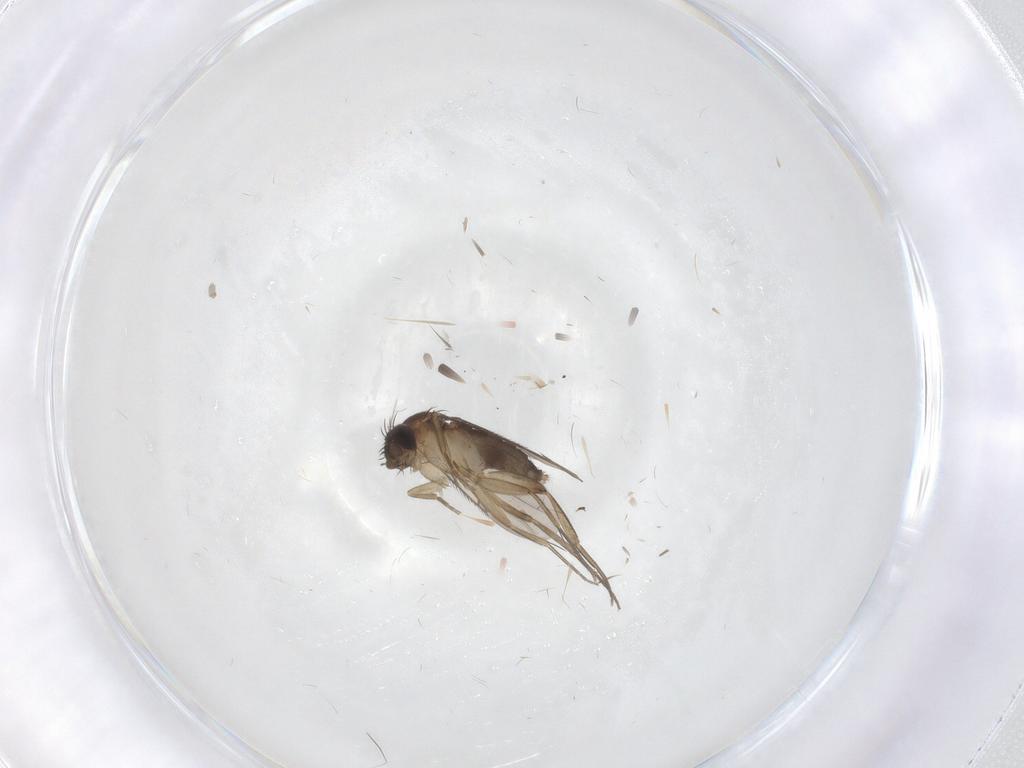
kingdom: Animalia
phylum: Arthropoda
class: Insecta
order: Diptera
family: Phoridae
